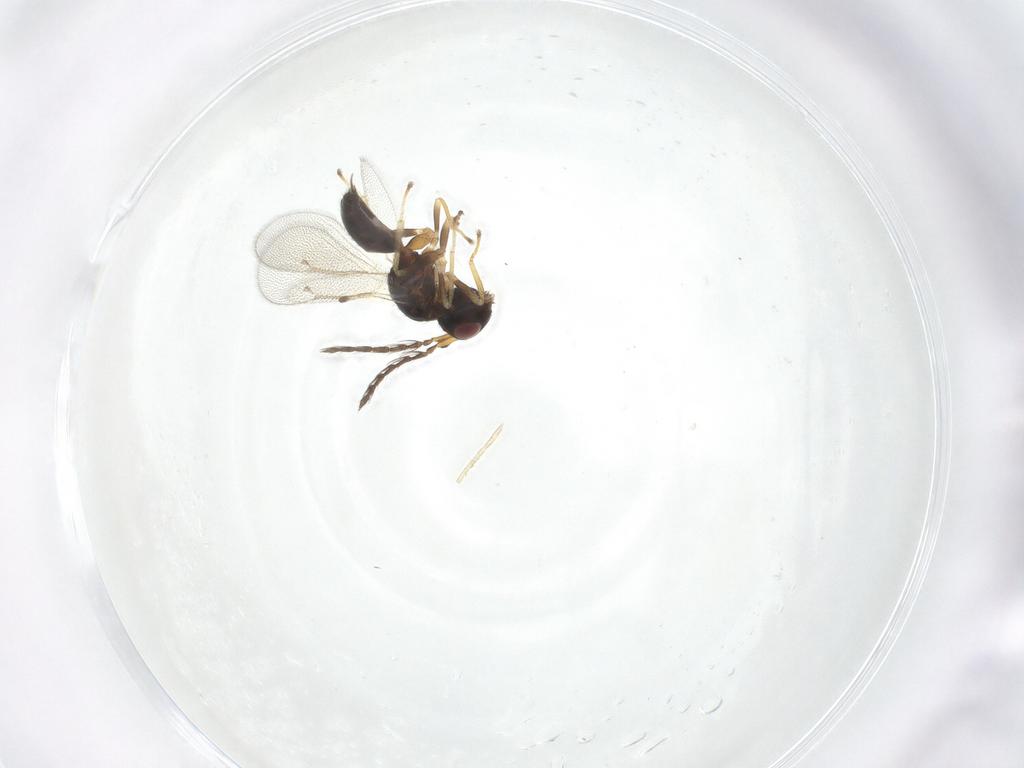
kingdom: Animalia
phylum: Arthropoda
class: Insecta
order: Hymenoptera
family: Eulophidae
